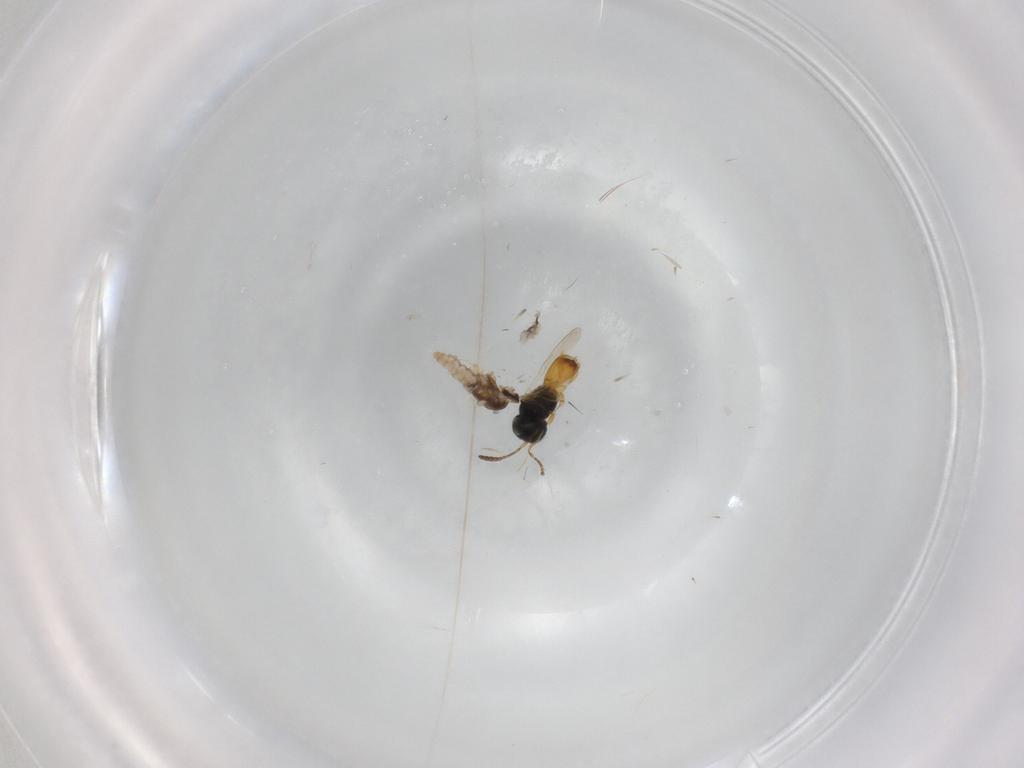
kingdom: Animalia
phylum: Arthropoda
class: Insecta
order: Hymenoptera
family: Scelionidae
